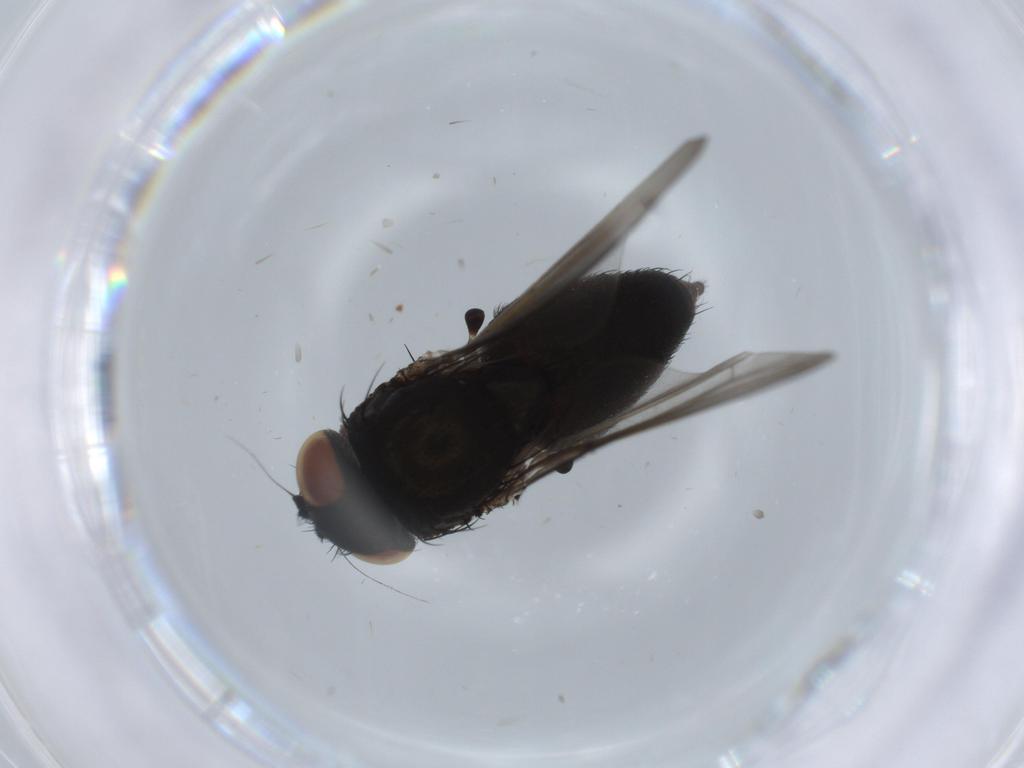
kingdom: Animalia
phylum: Arthropoda
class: Insecta
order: Diptera
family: Milichiidae
